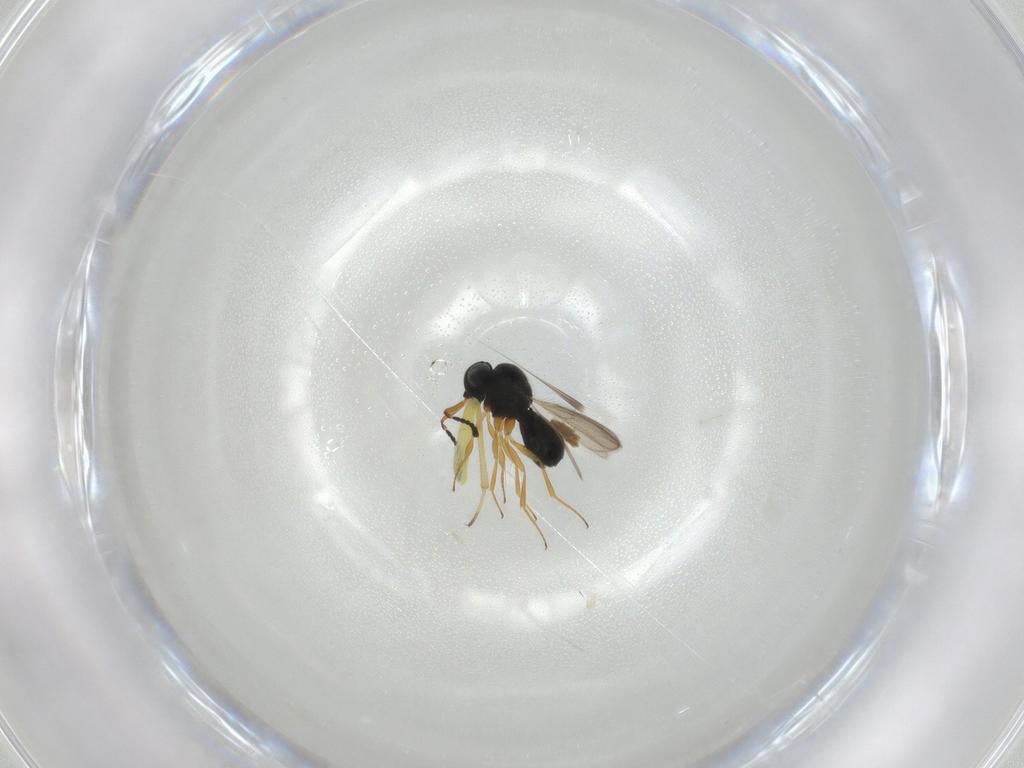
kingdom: Animalia
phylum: Arthropoda
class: Insecta
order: Hymenoptera
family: Scelionidae
